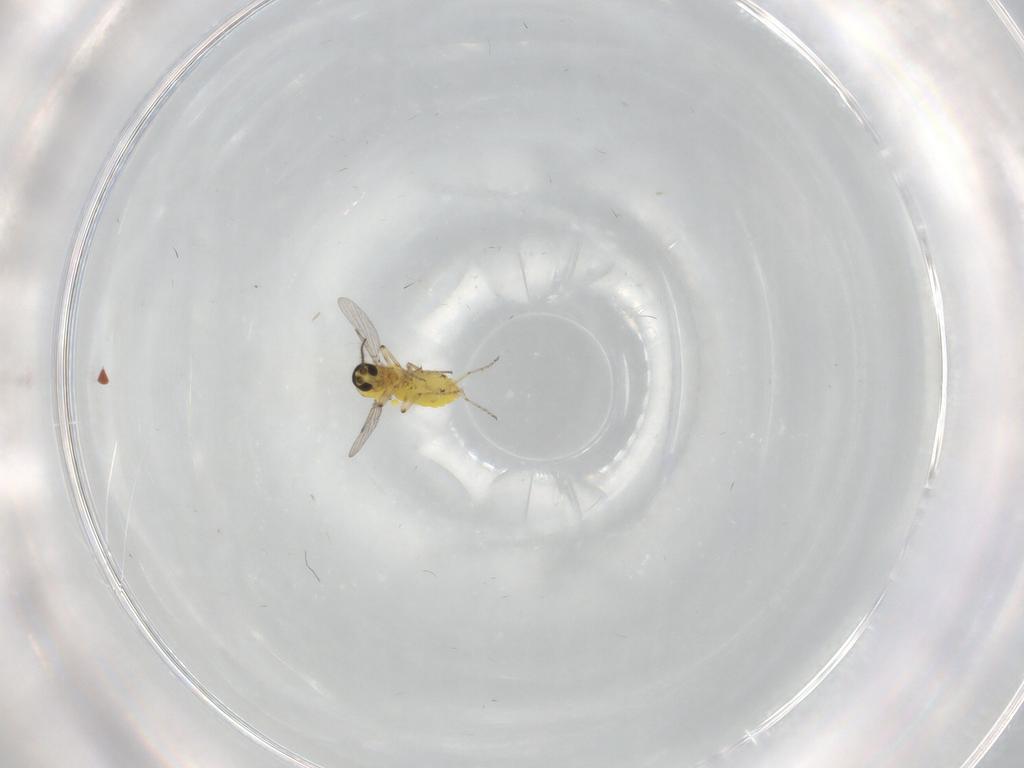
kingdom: Animalia
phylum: Arthropoda
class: Insecta
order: Diptera
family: Ceratopogonidae
